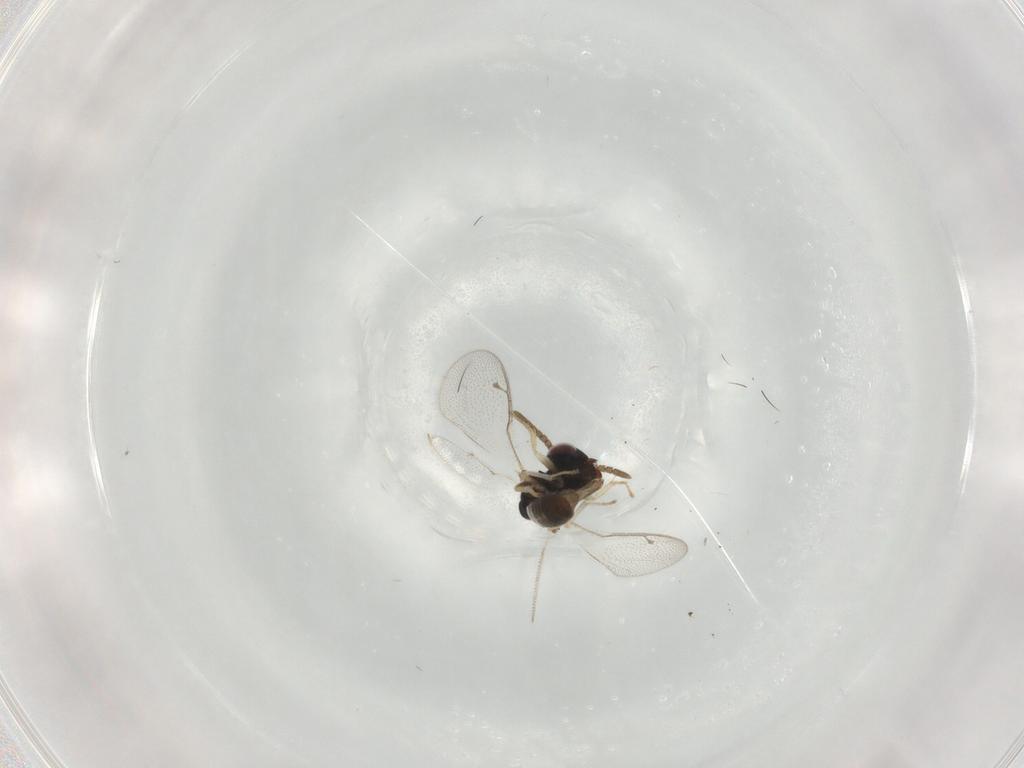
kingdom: Animalia
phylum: Arthropoda
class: Insecta
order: Hymenoptera
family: Pteromalidae
